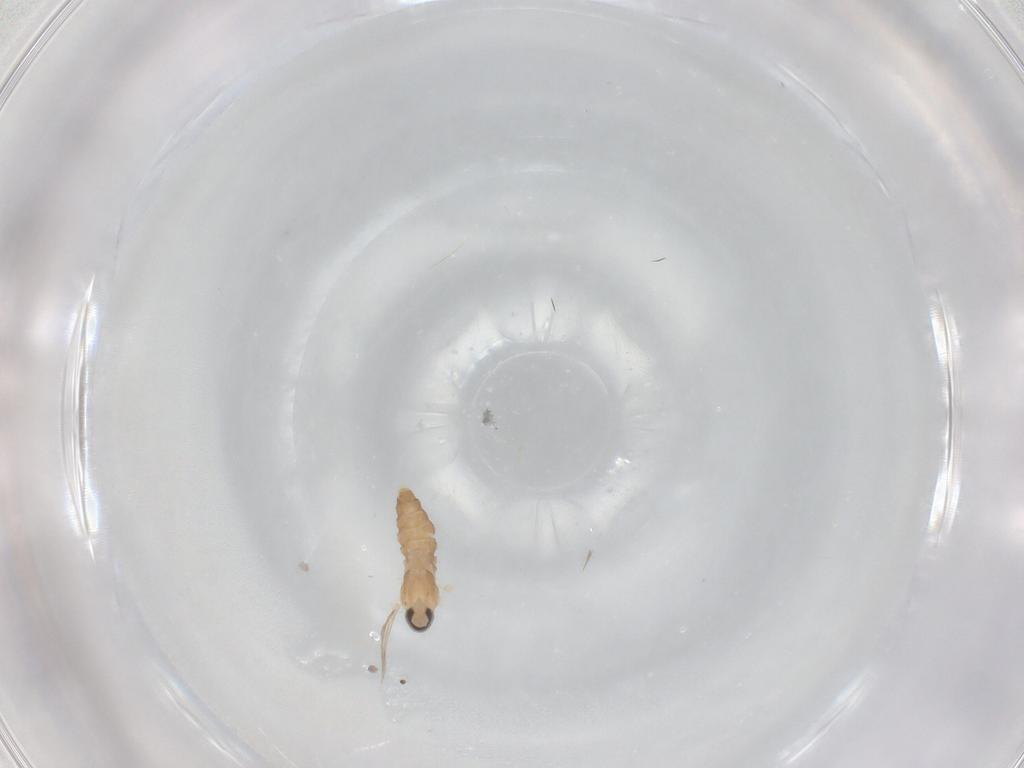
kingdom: Animalia
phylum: Arthropoda
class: Insecta
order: Diptera
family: Cecidomyiidae
